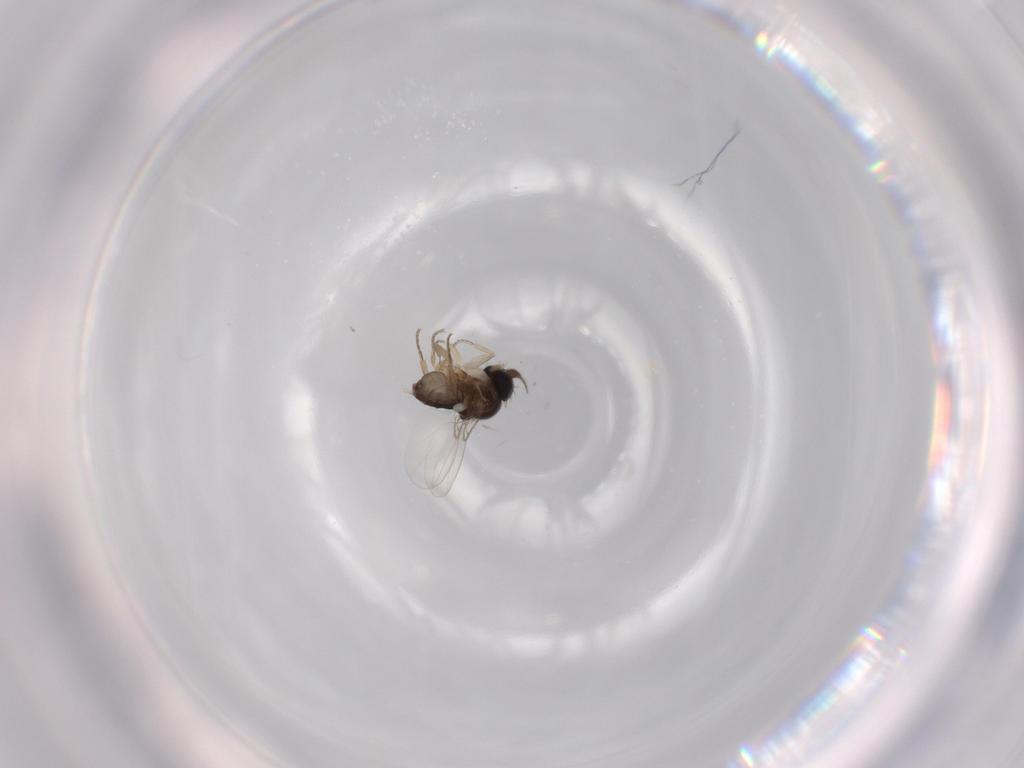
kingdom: Animalia
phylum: Arthropoda
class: Insecta
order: Diptera
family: Phoridae
